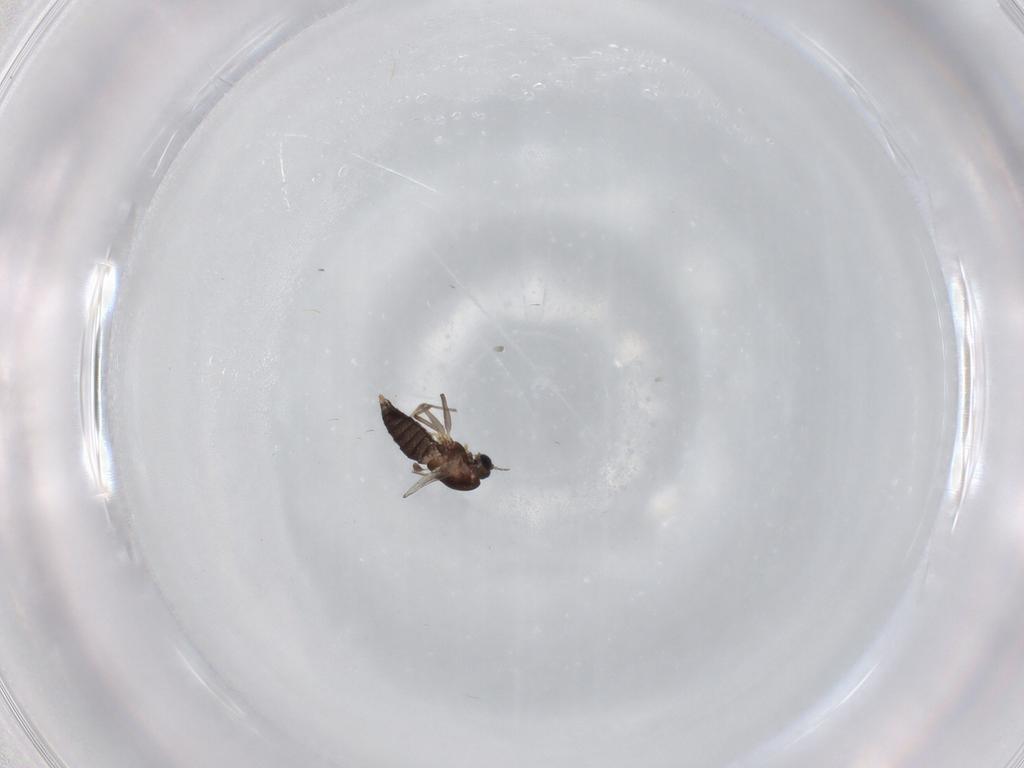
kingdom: Animalia
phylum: Arthropoda
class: Insecta
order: Diptera
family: Chironomidae
